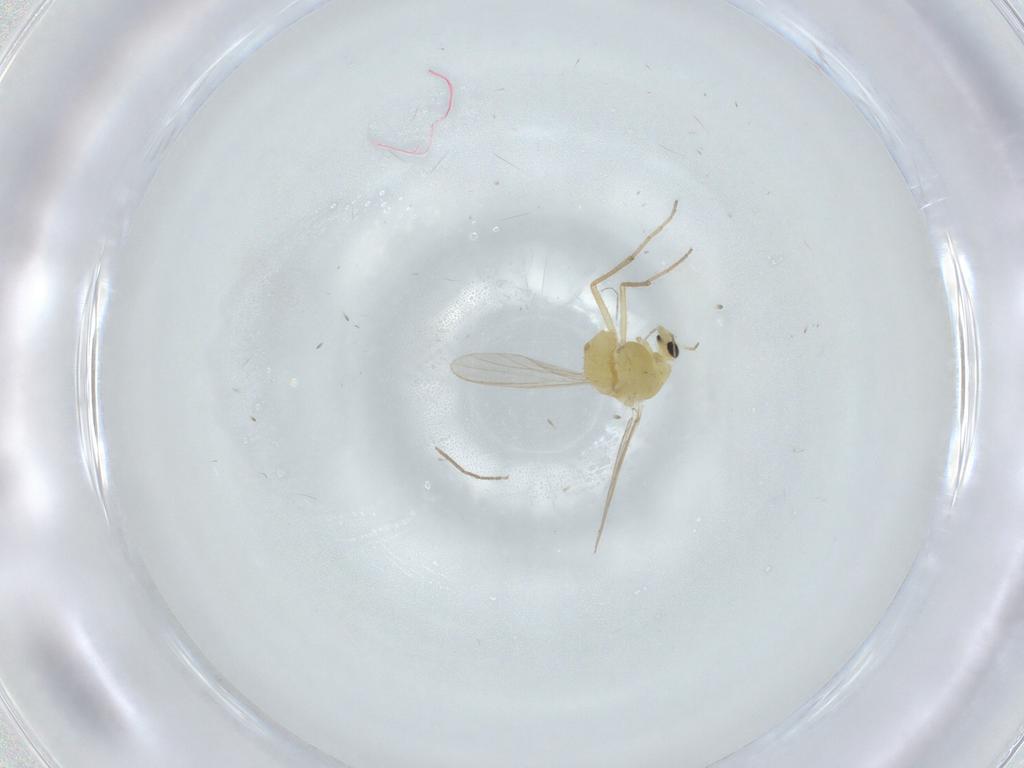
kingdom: Animalia
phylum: Arthropoda
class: Insecta
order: Diptera
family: Chironomidae
